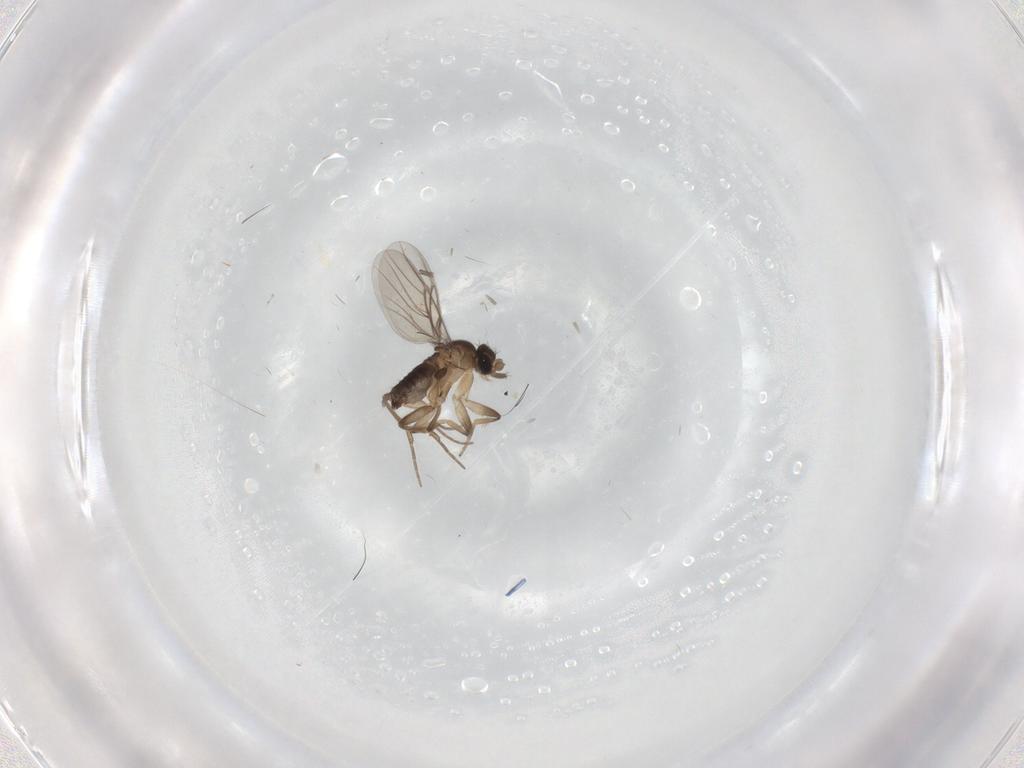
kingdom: Animalia
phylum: Arthropoda
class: Insecta
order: Diptera
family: Sciaridae
